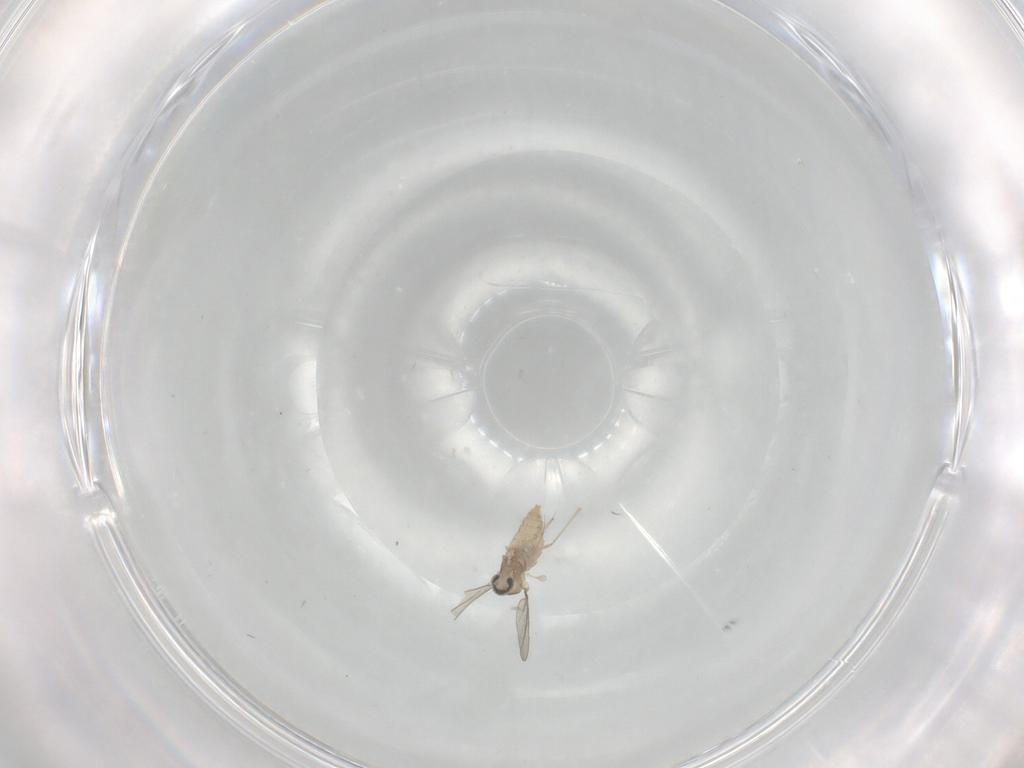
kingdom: Animalia
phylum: Arthropoda
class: Insecta
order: Diptera
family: Cecidomyiidae
